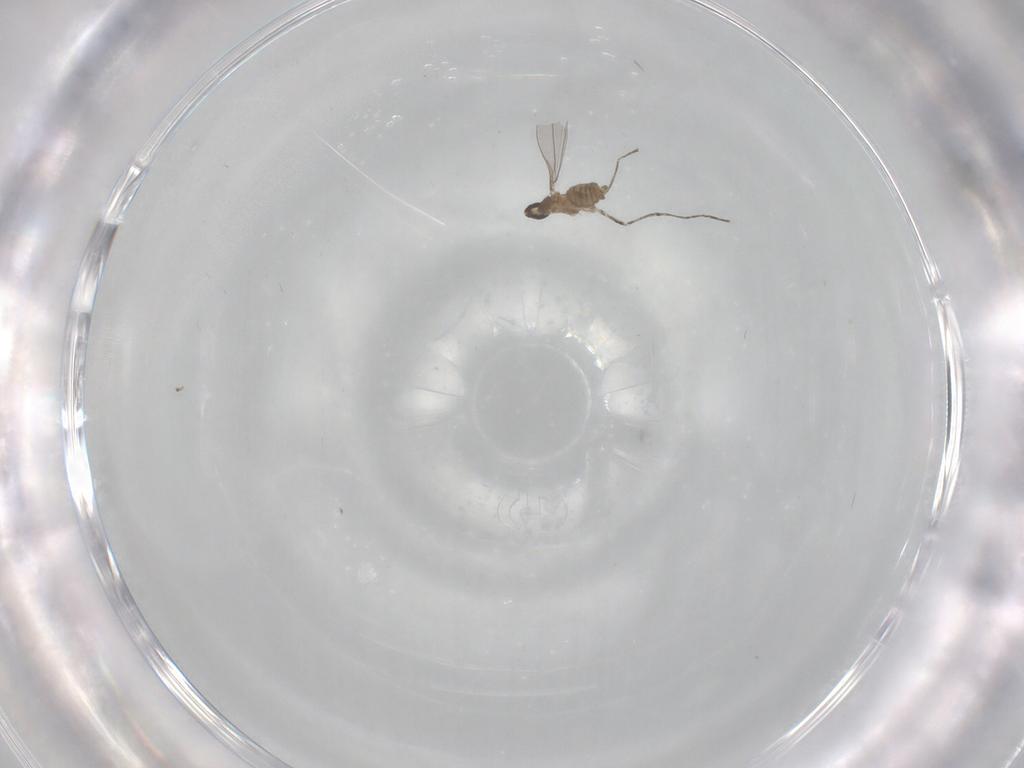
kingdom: Animalia
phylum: Arthropoda
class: Insecta
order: Diptera
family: Cecidomyiidae
